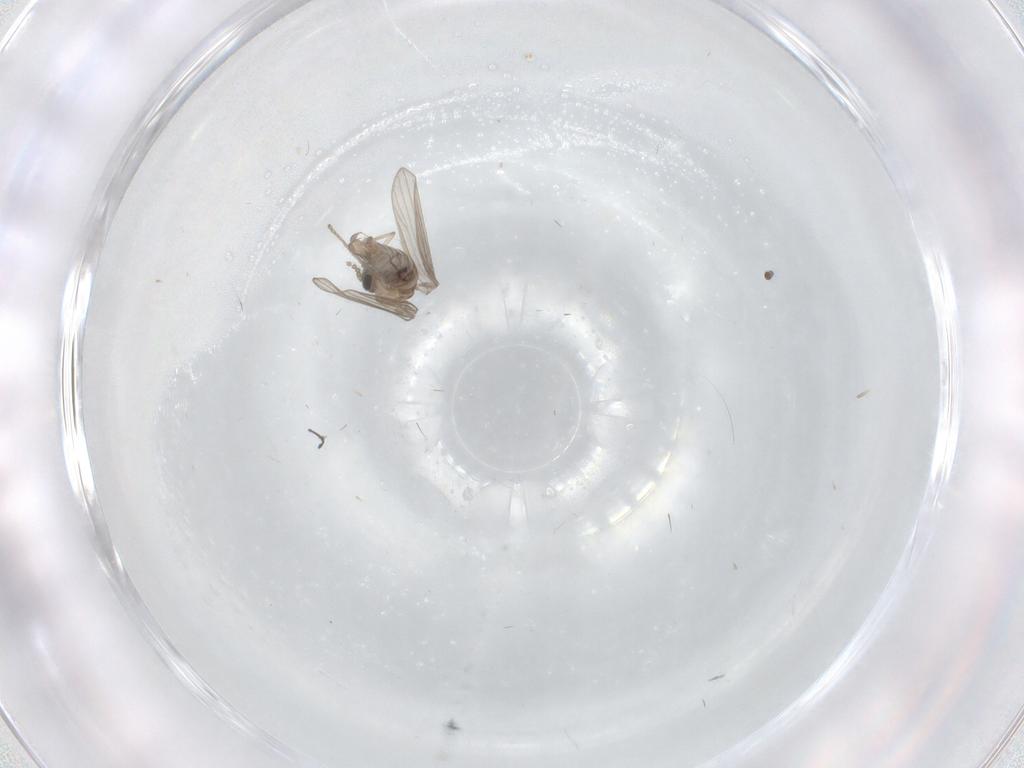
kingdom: Animalia
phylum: Arthropoda
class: Insecta
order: Diptera
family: Psychodidae
